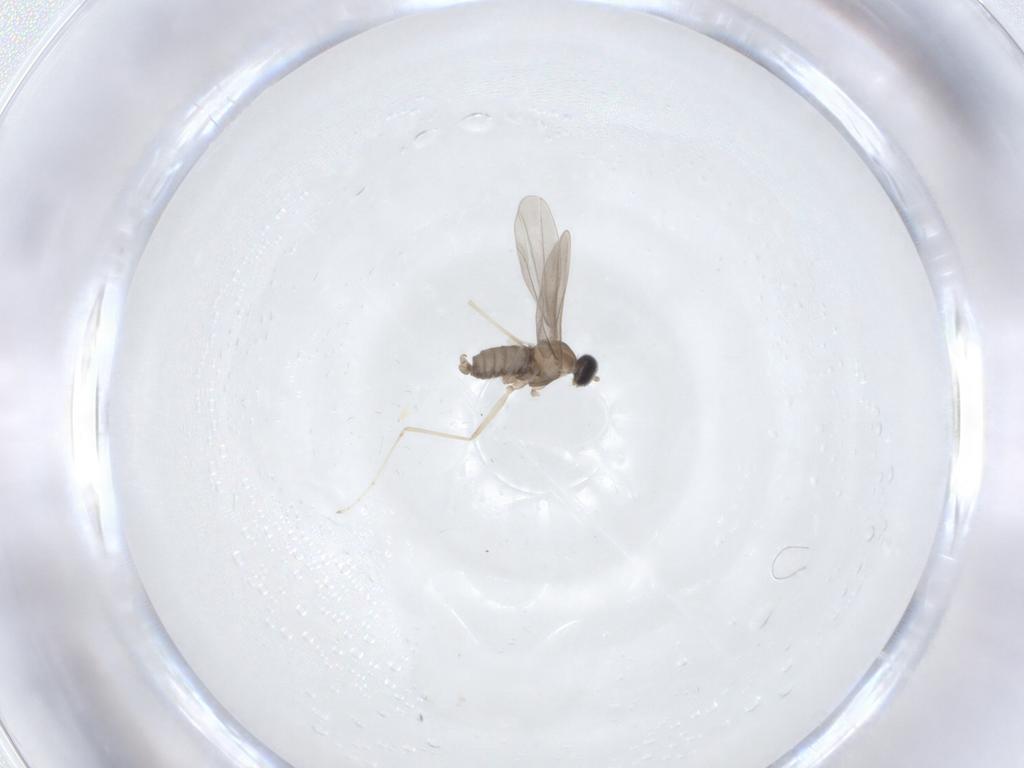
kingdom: Animalia
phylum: Arthropoda
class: Insecta
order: Diptera
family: Cecidomyiidae
